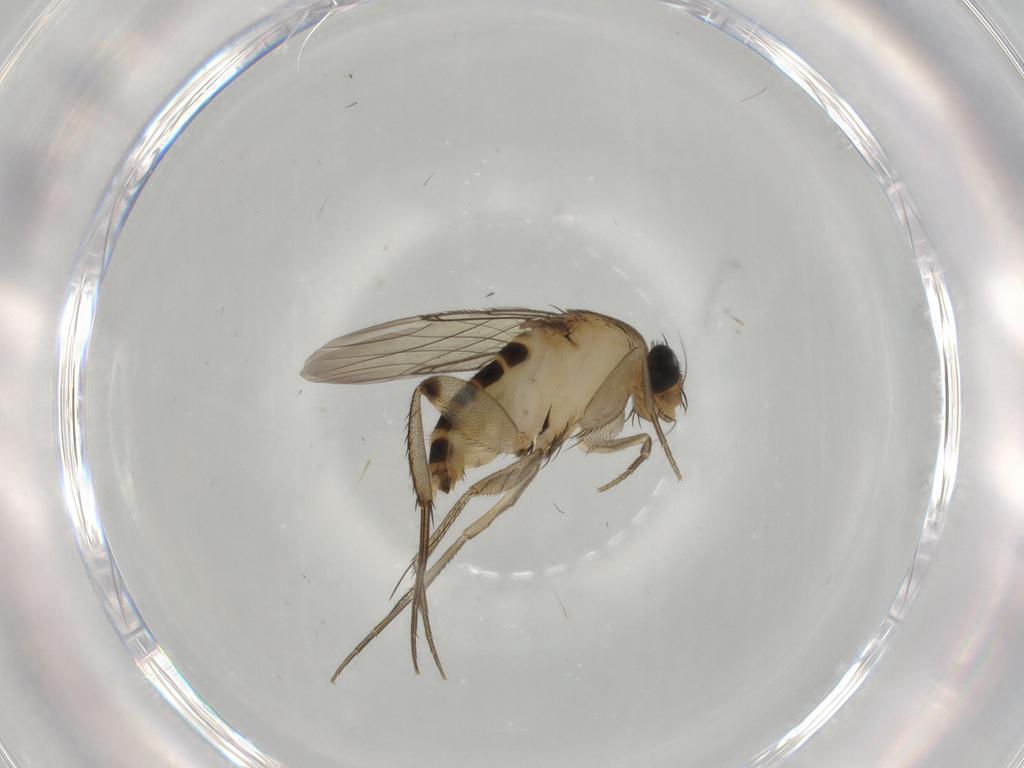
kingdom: Animalia
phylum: Arthropoda
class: Insecta
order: Diptera
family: Phoridae
